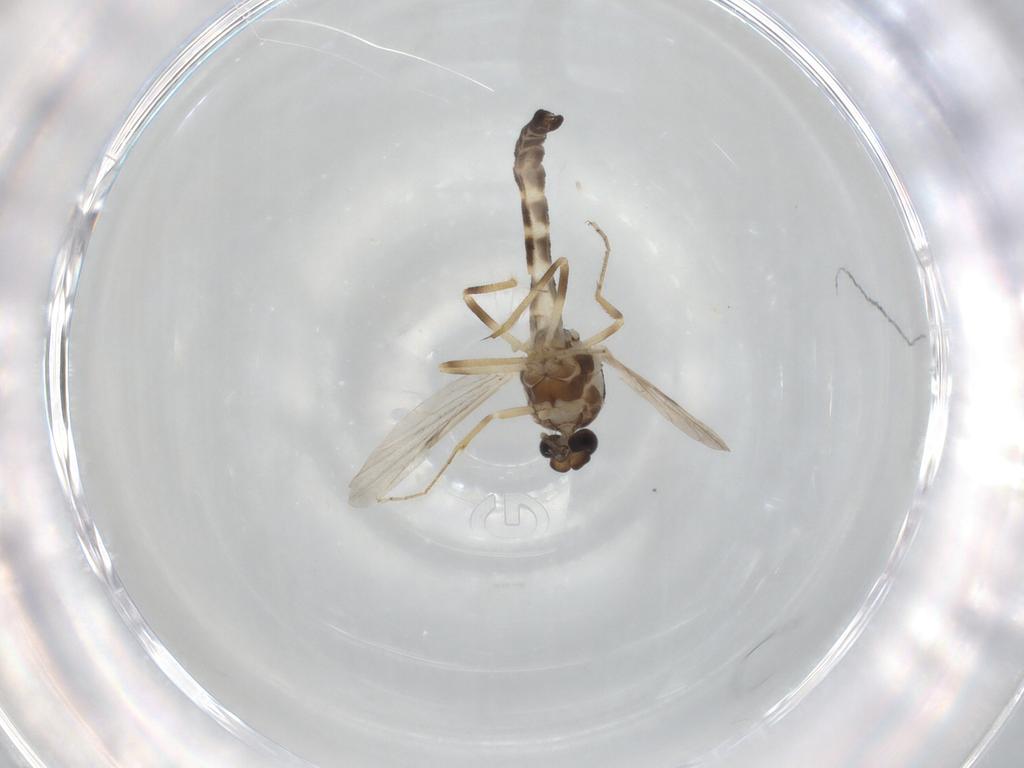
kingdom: Animalia
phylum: Arthropoda
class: Insecta
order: Diptera
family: Ceratopogonidae
